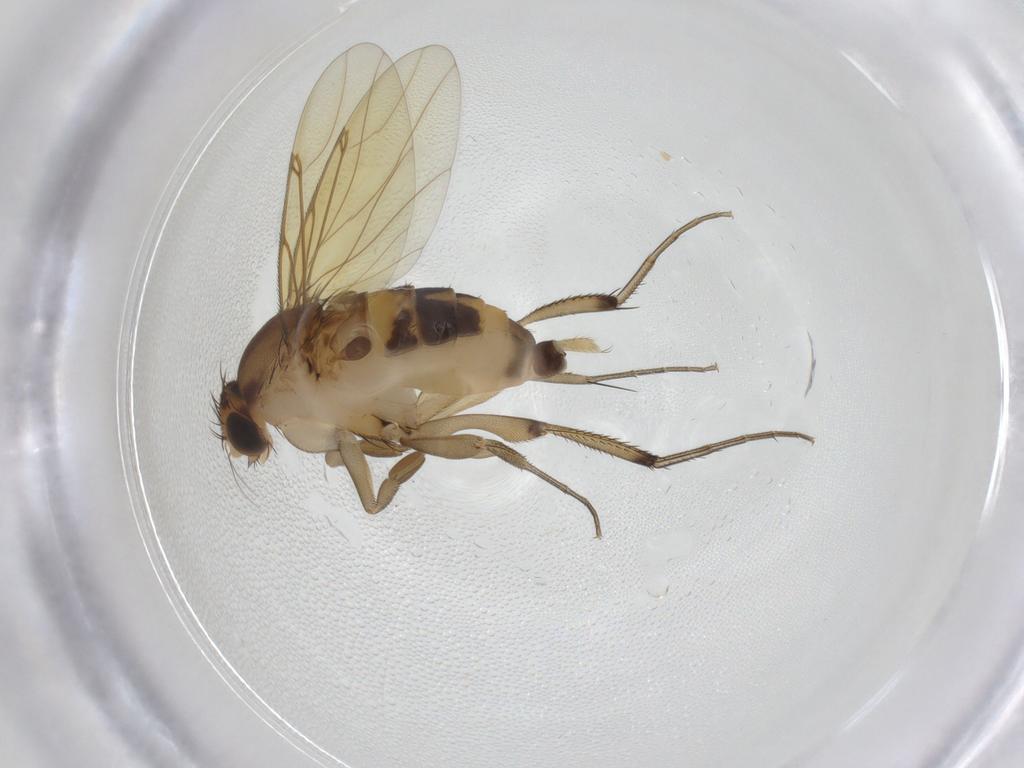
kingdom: Animalia
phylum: Arthropoda
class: Insecta
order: Diptera
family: Phoridae
